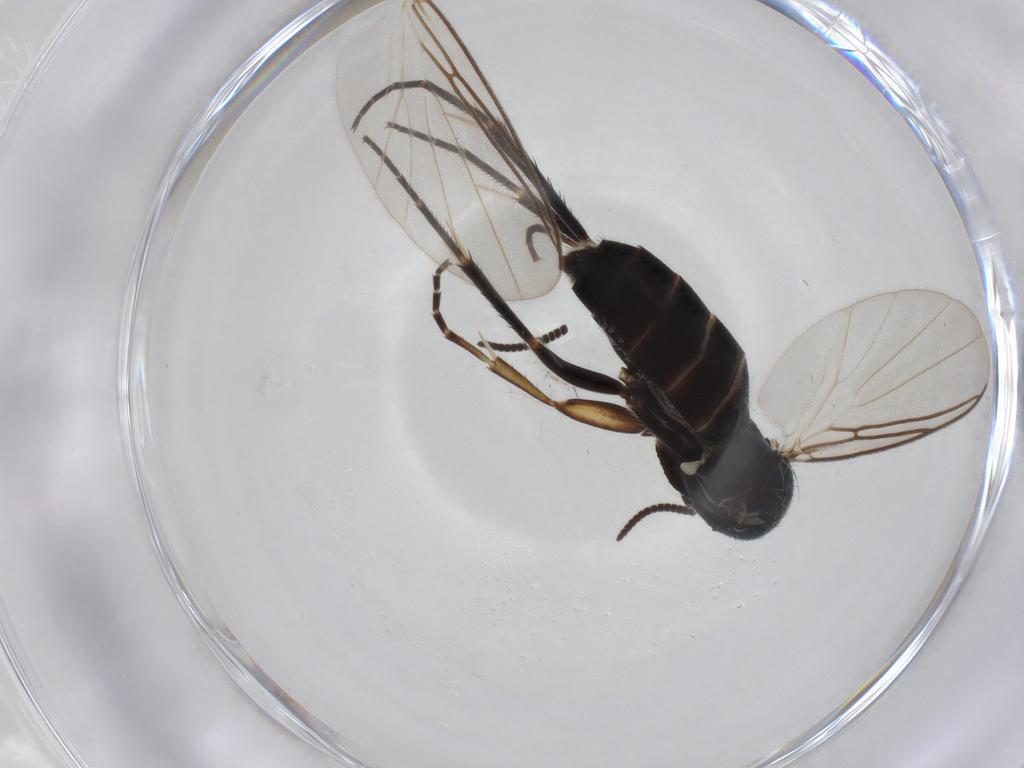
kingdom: Animalia
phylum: Arthropoda
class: Insecta
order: Diptera
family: Mycetophilidae
